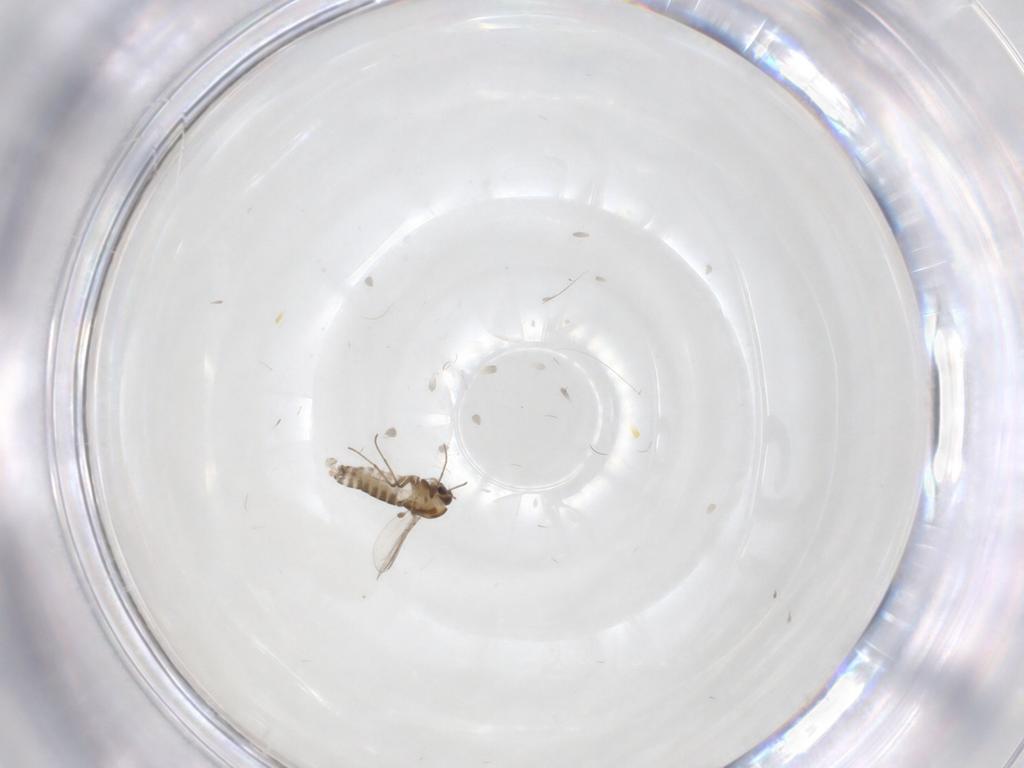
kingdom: Animalia
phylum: Arthropoda
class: Insecta
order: Diptera
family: Chironomidae
